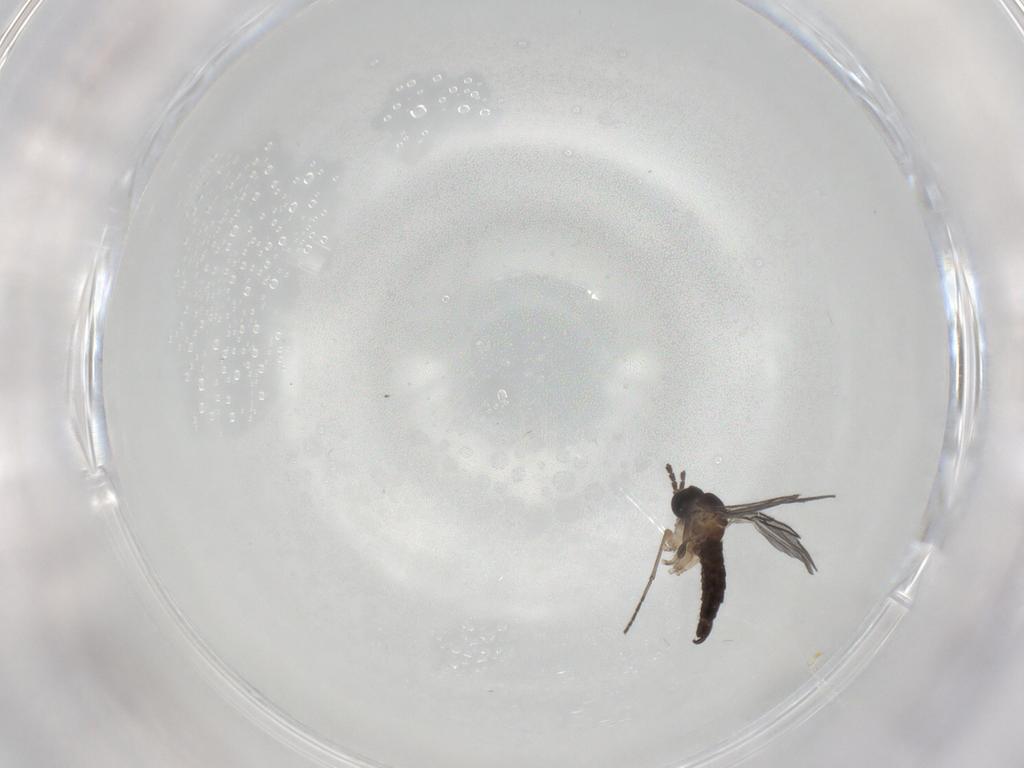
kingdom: Animalia
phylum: Arthropoda
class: Insecta
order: Diptera
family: Sciaridae
